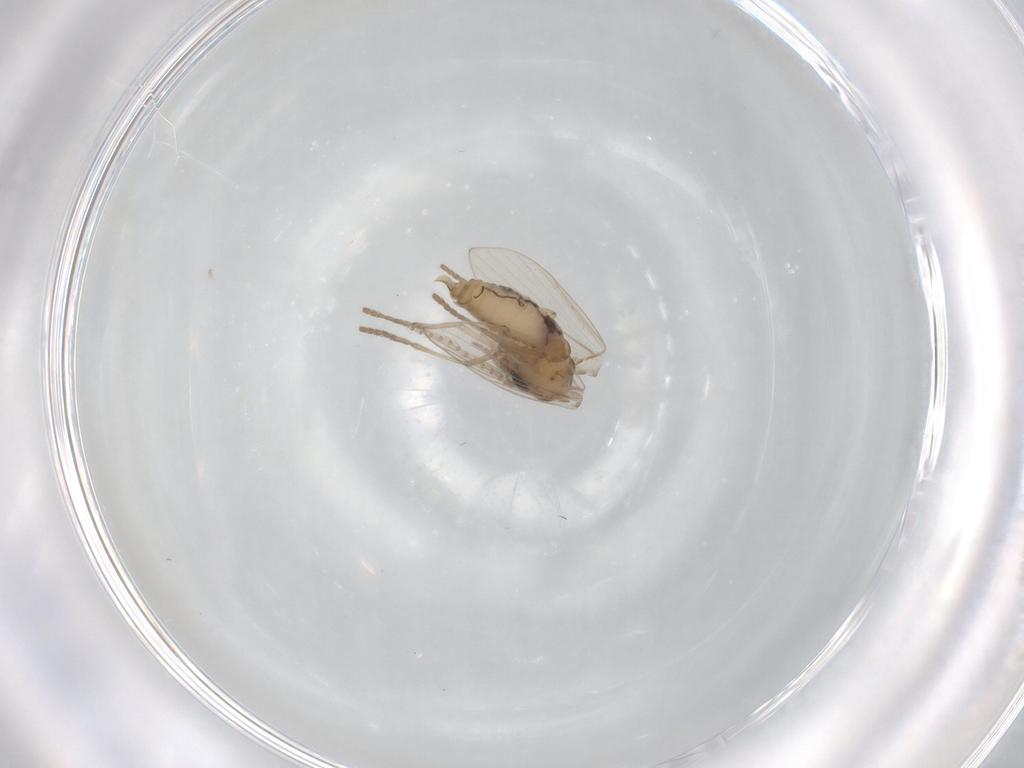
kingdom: Animalia
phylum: Arthropoda
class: Insecta
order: Diptera
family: Psychodidae
